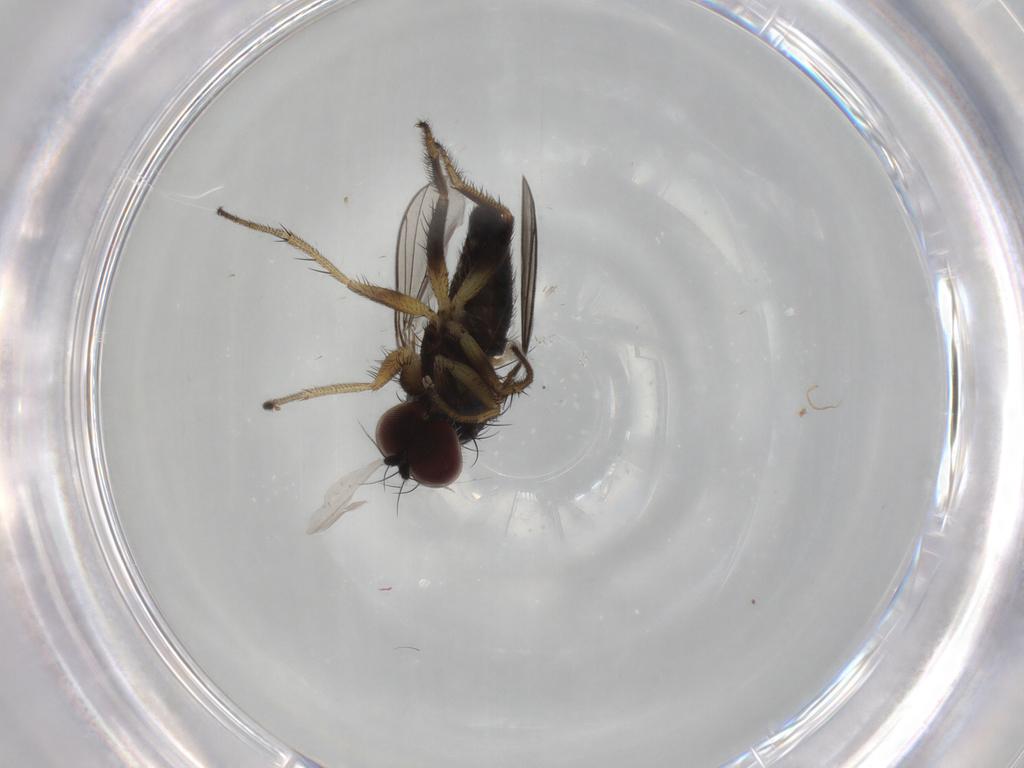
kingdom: Animalia
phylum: Arthropoda
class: Insecta
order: Diptera
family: Dolichopodidae
